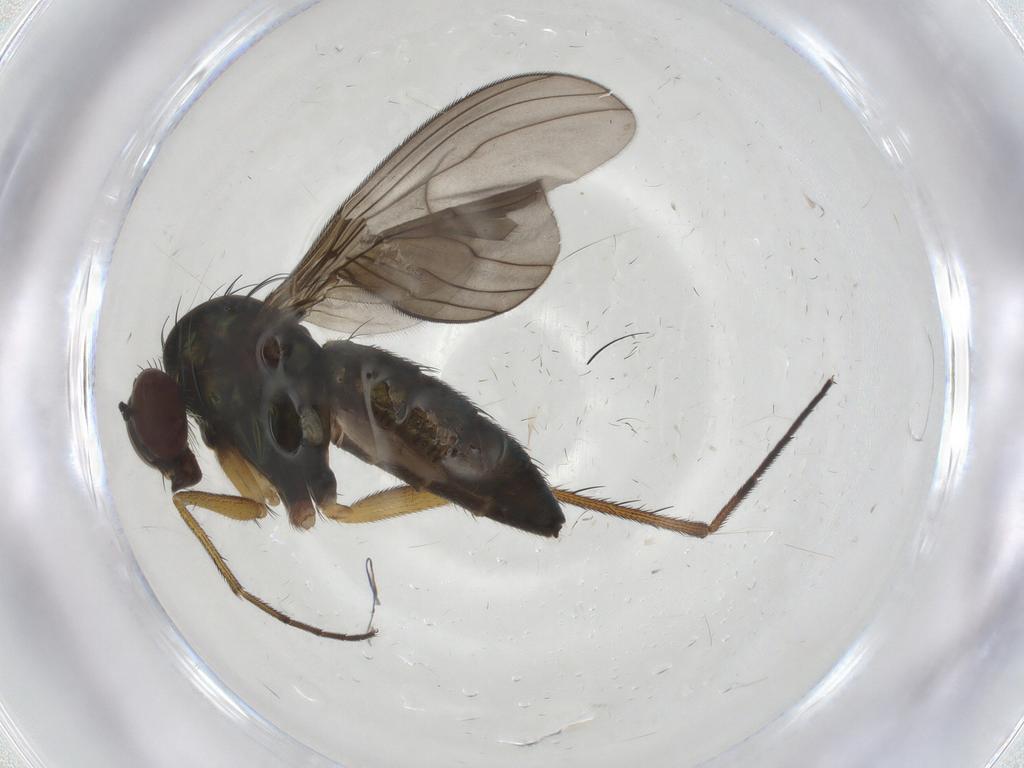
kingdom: Animalia
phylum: Arthropoda
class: Insecta
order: Diptera
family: Dolichopodidae
